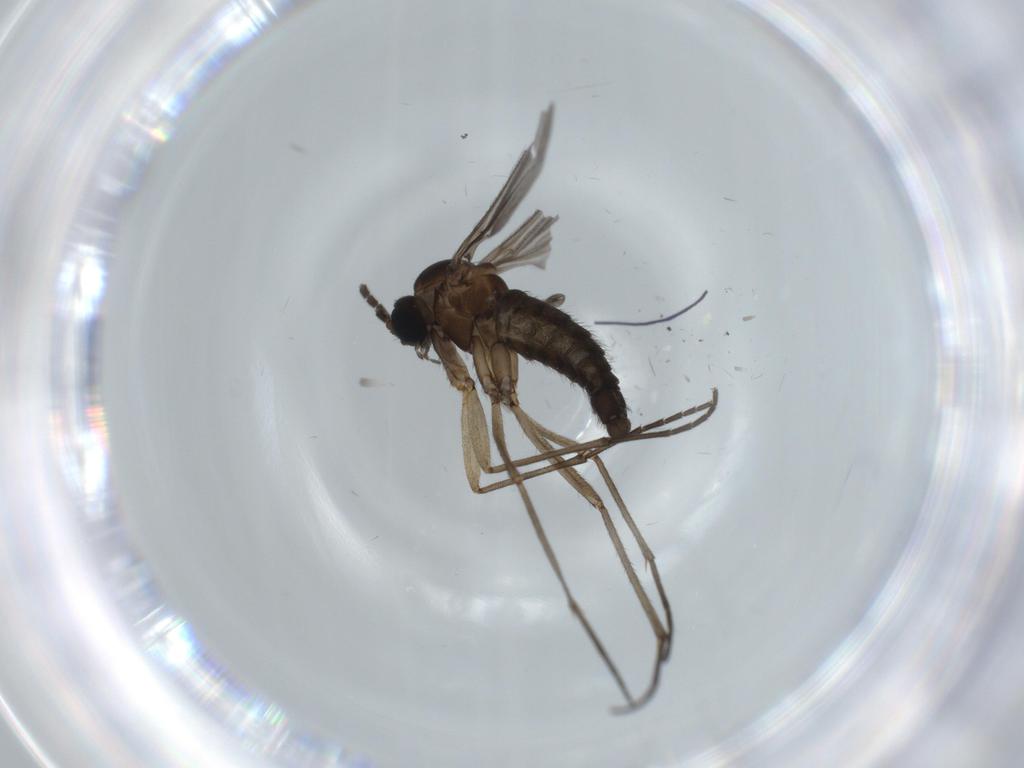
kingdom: Animalia
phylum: Arthropoda
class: Insecta
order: Diptera
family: Sciaridae
